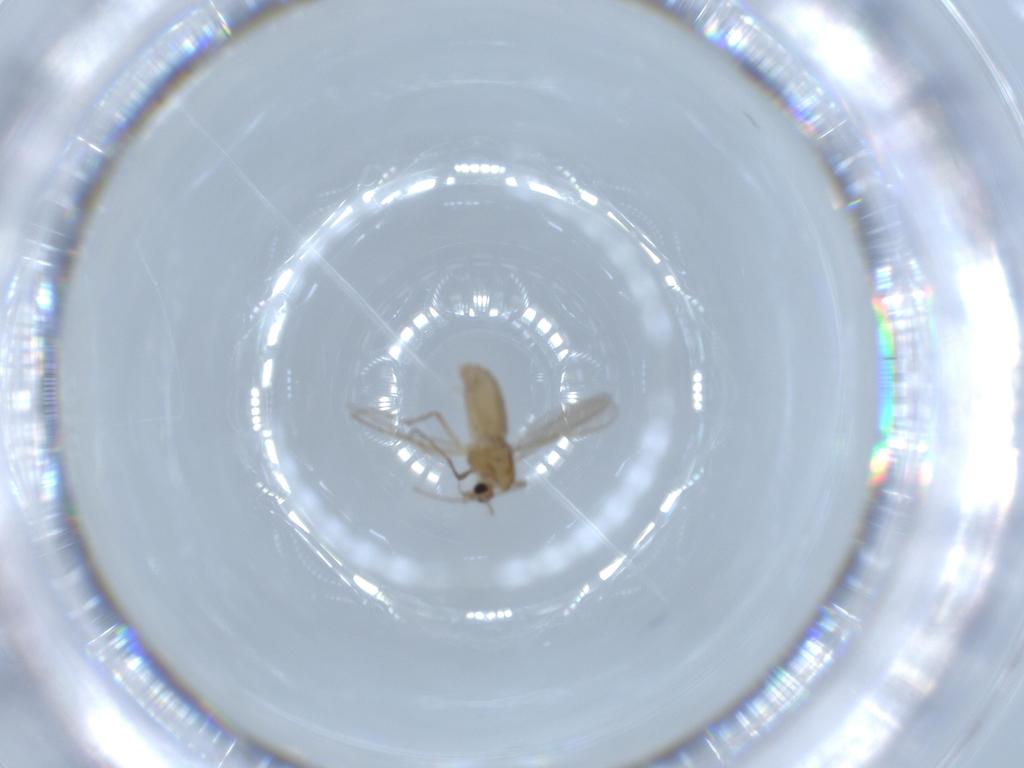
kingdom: Animalia
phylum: Arthropoda
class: Insecta
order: Diptera
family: Chironomidae
